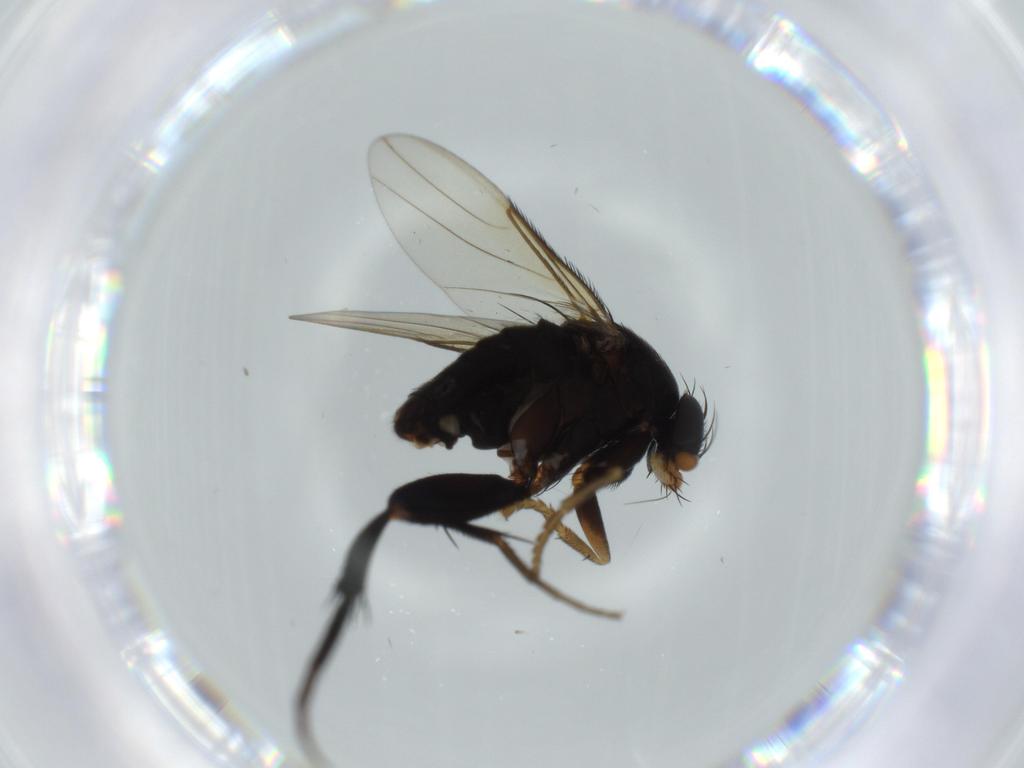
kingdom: Animalia
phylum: Arthropoda
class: Insecta
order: Diptera
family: Phoridae
